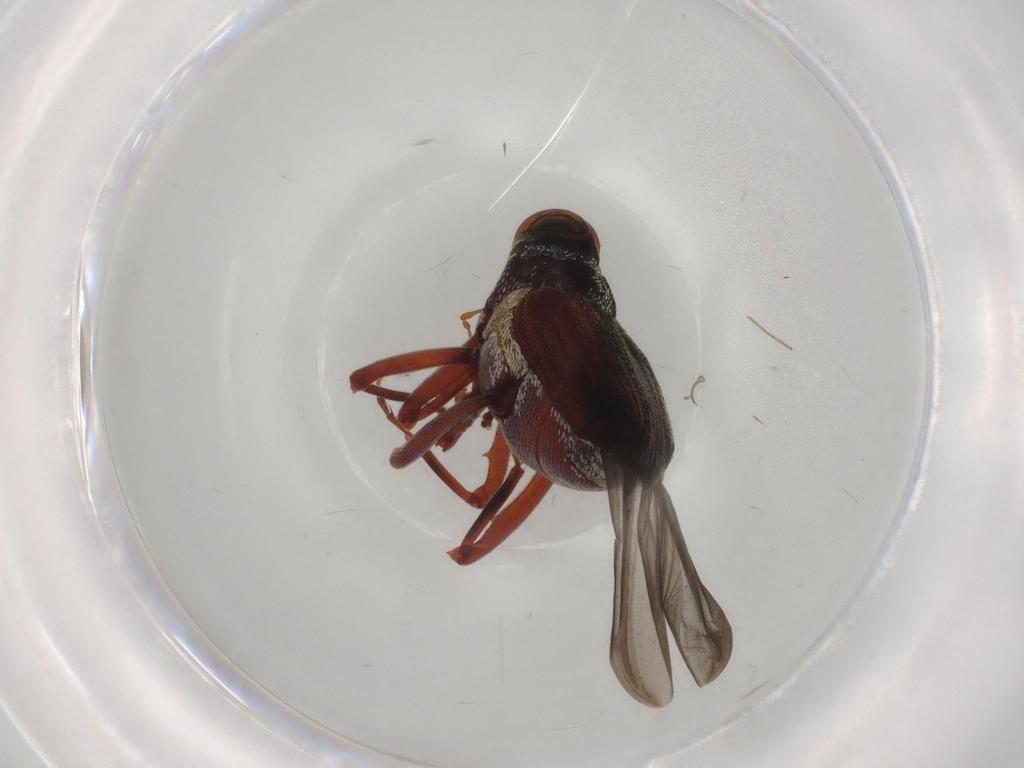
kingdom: Animalia
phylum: Arthropoda
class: Insecta
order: Coleoptera
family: Curculionidae
